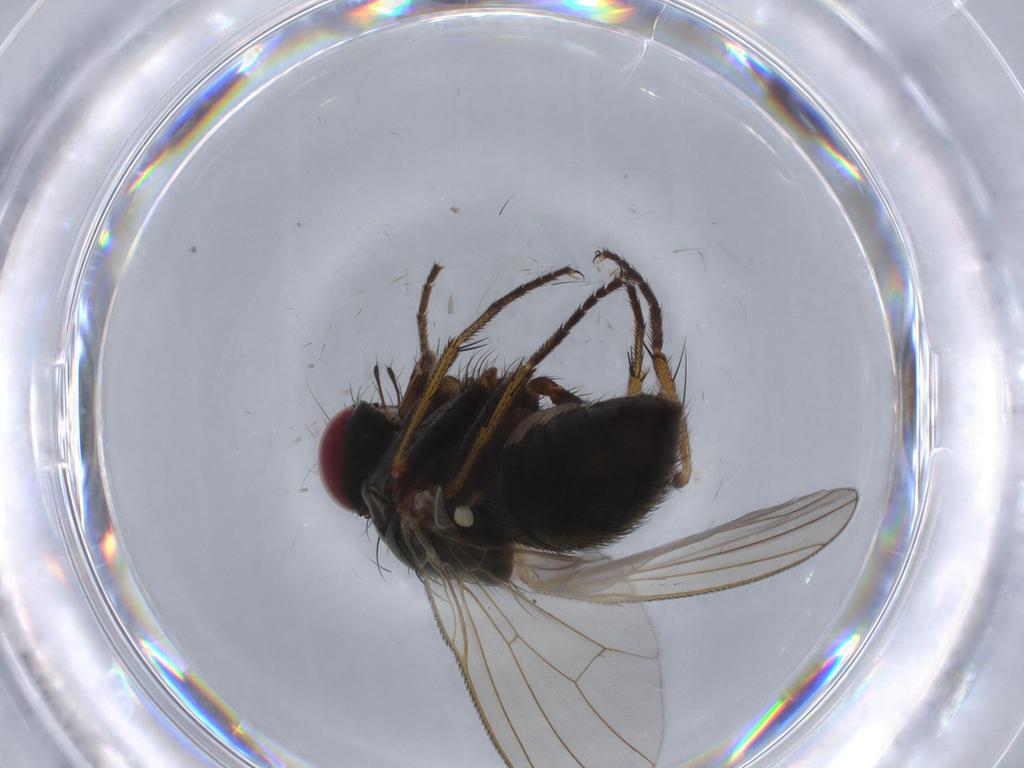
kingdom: Animalia
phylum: Arthropoda
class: Insecta
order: Diptera
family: Muscidae
